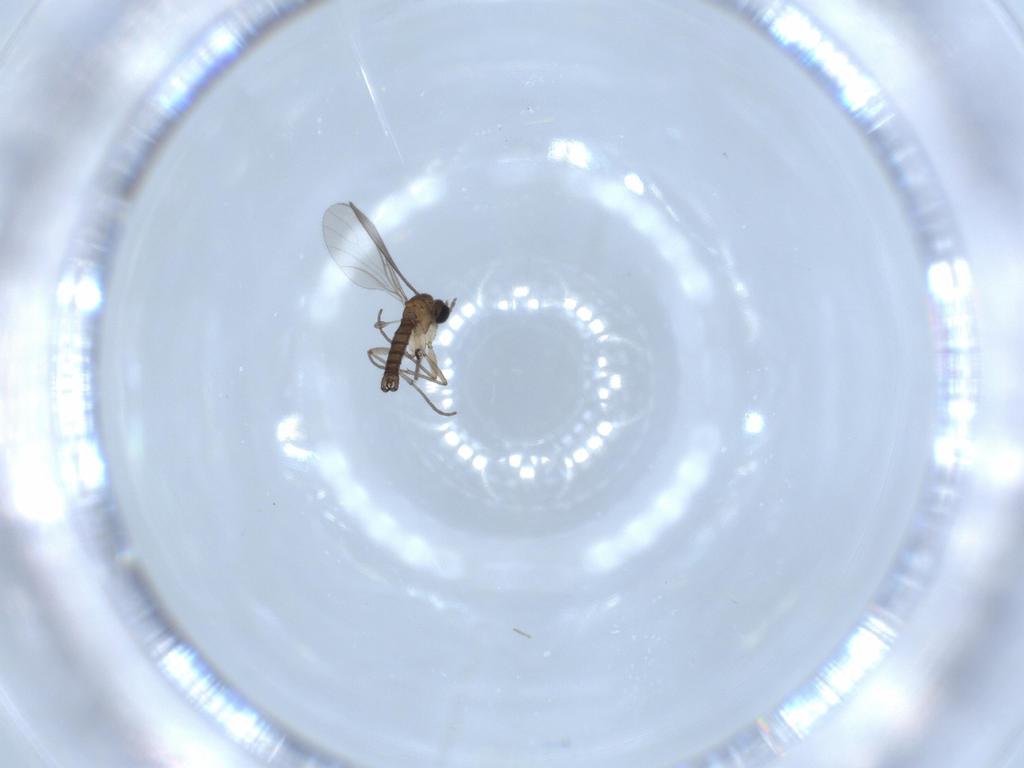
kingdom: Animalia
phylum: Arthropoda
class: Insecta
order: Diptera
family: Sciaridae
